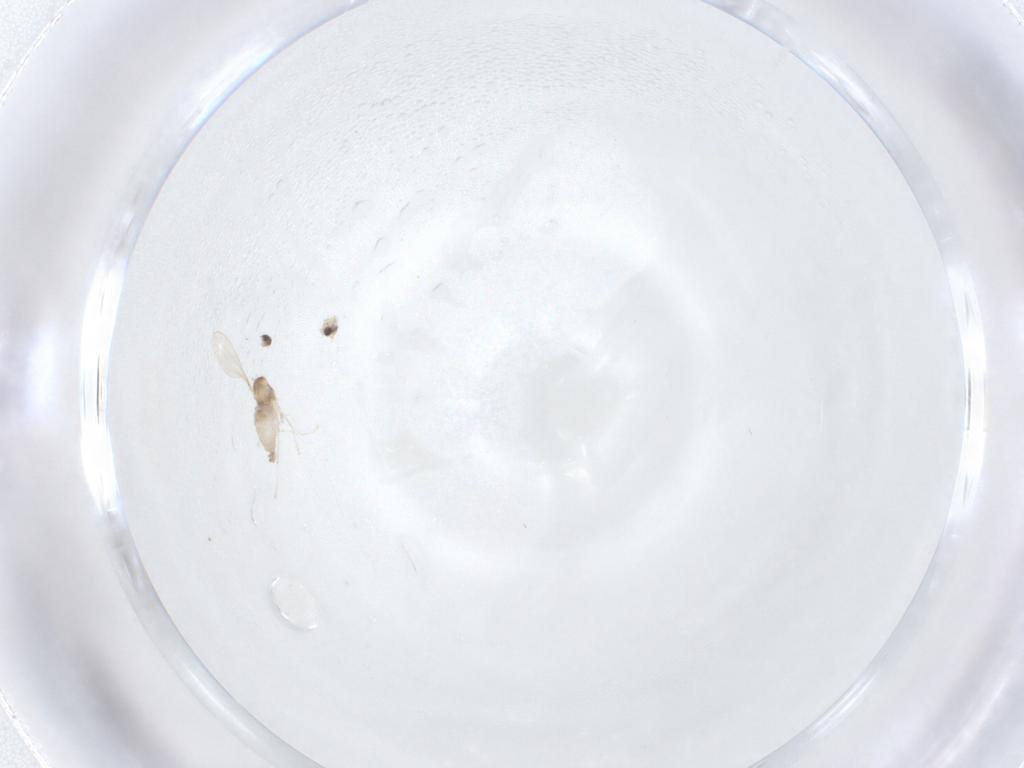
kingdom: Animalia
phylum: Arthropoda
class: Insecta
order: Diptera
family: Cecidomyiidae
